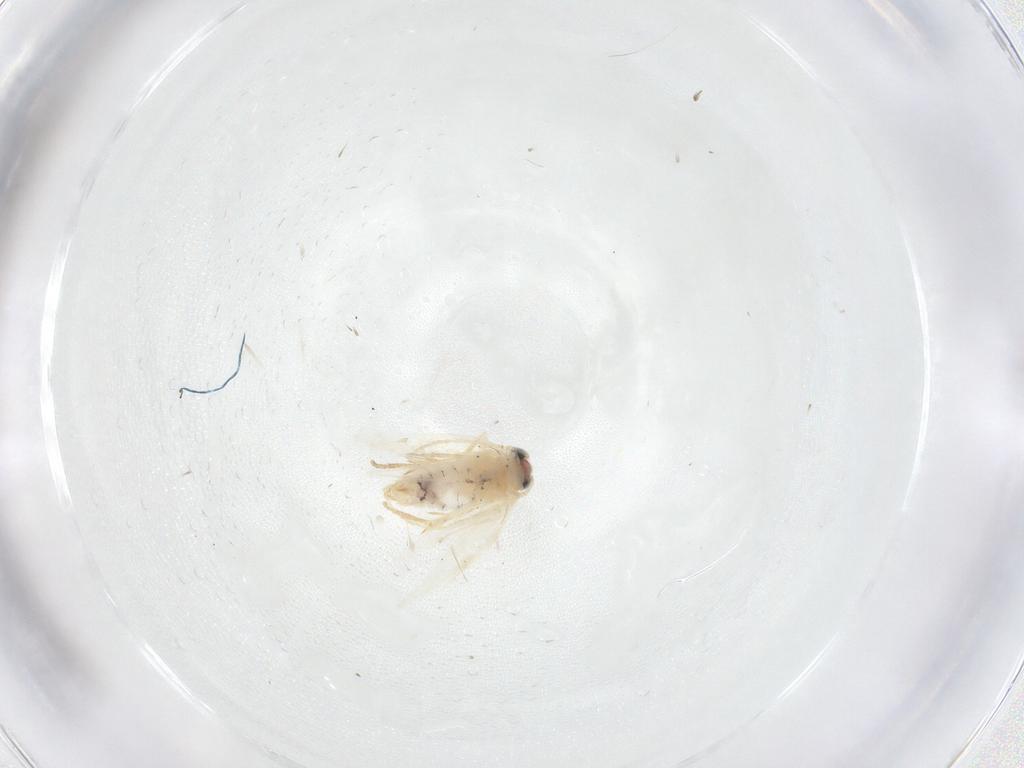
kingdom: Animalia
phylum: Arthropoda
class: Insecta
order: Lepidoptera
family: Nepticulidae
